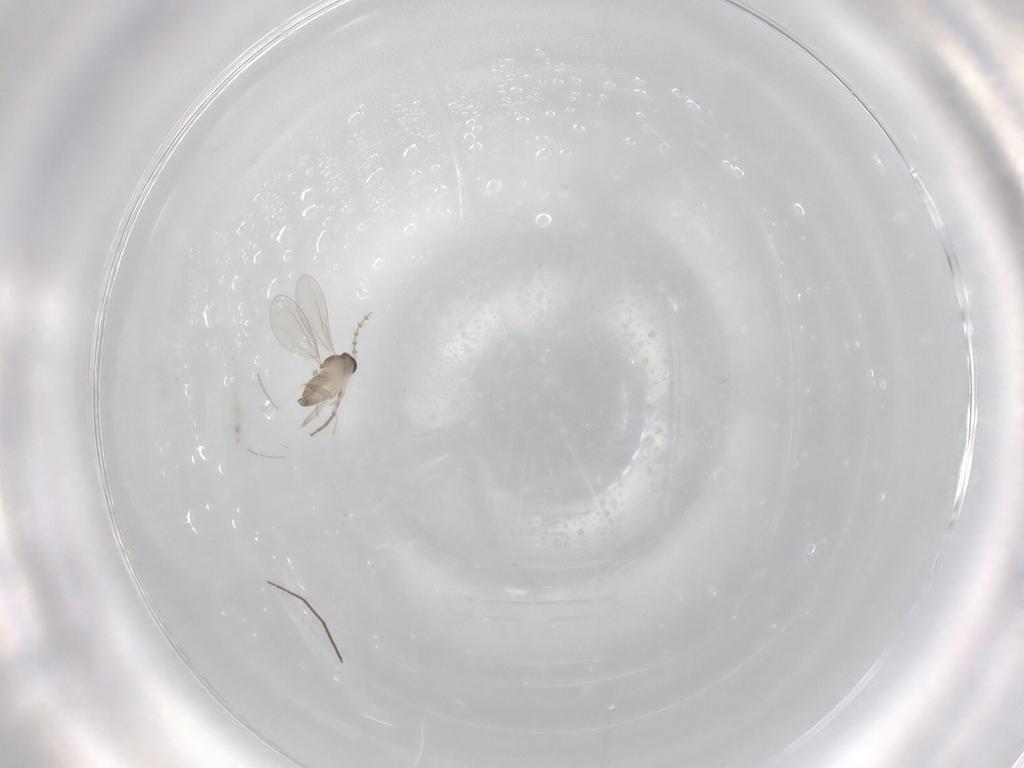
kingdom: Animalia
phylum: Arthropoda
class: Insecta
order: Diptera
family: Cecidomyiidae
